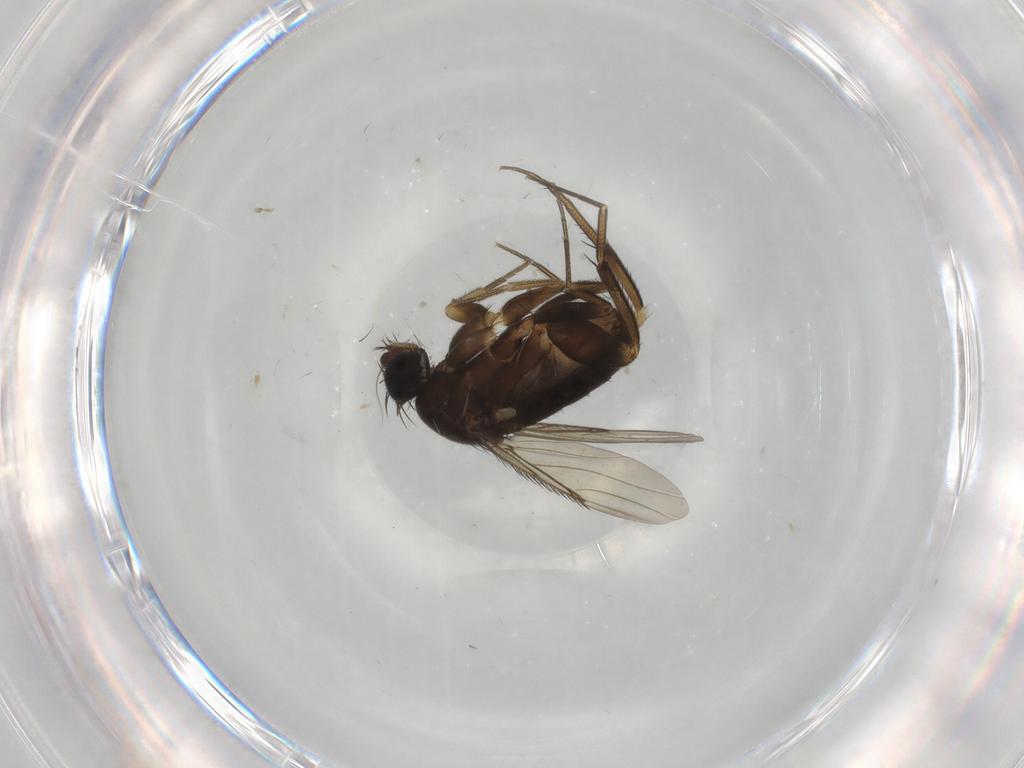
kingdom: Animalia
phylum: Arthropoda
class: Insecta
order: Diptera
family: Phoridae
